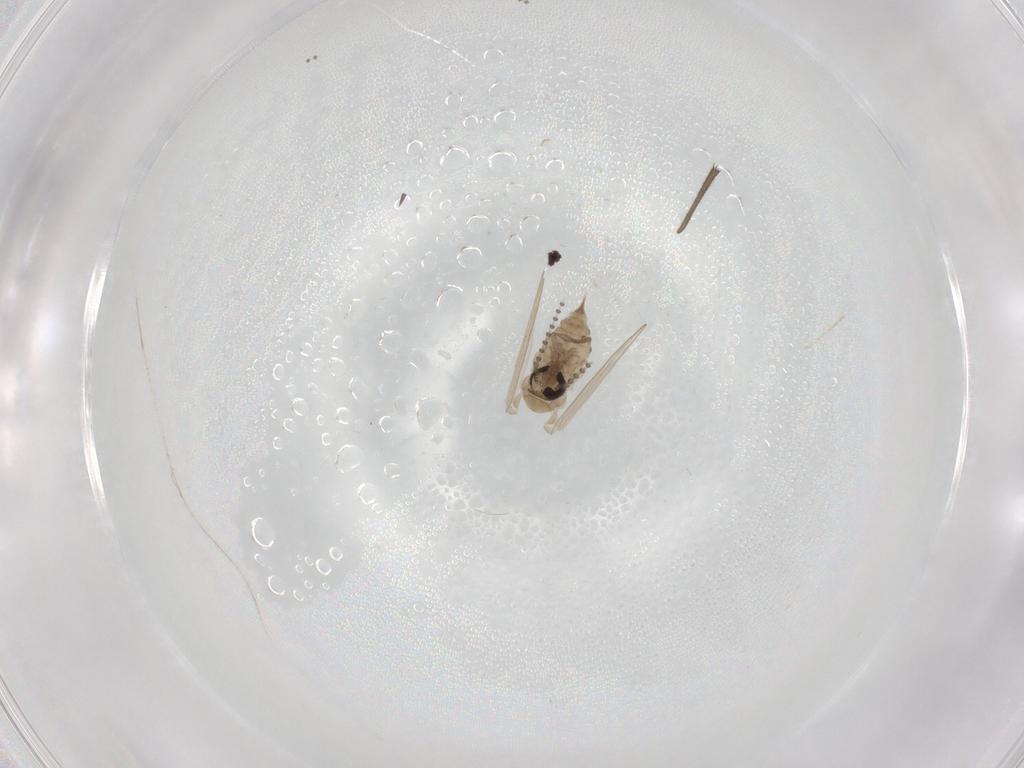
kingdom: Animalia
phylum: Arthropoda
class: Insecta
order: Diptera
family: Psychodidae
